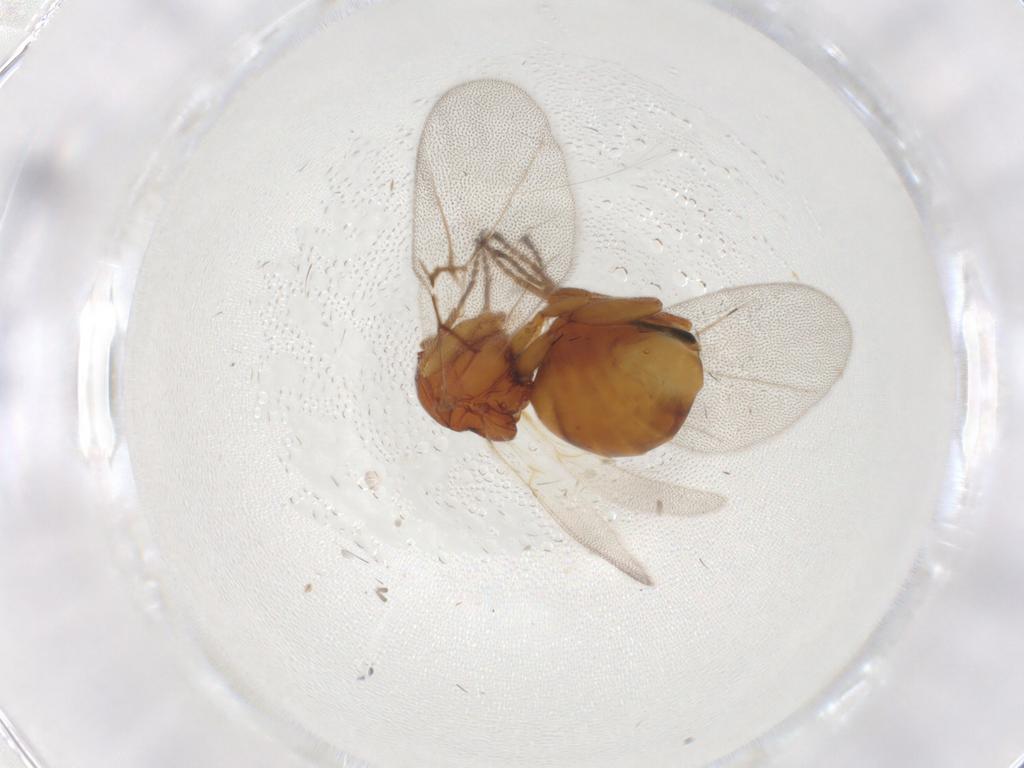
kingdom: Animalia
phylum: Arthropoda
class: Insecta
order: Hymenoptera
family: Cynipidae
